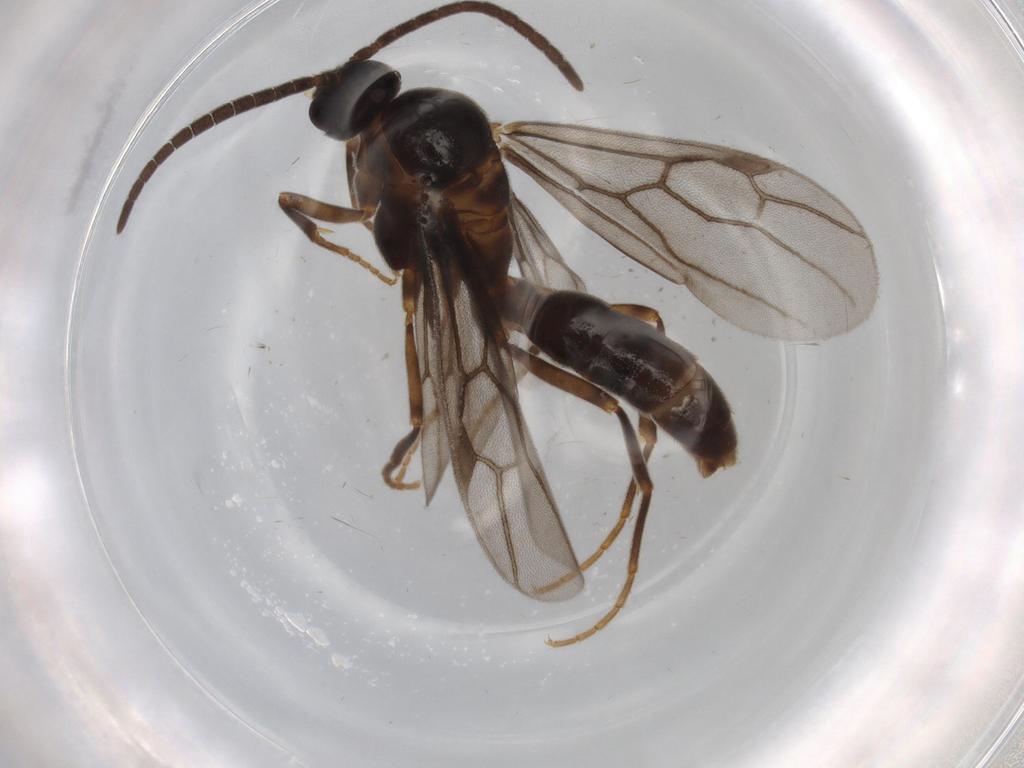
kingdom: Animalia
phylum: Arthropoda
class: Insecta
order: Hymenoptera
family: Formicidae
